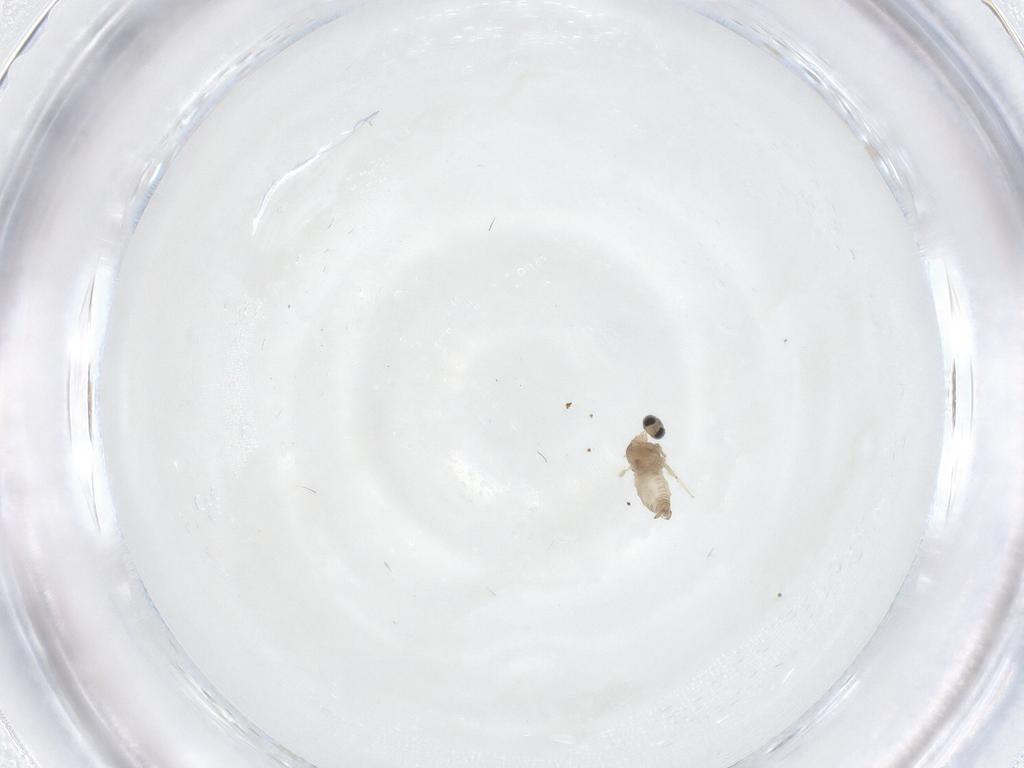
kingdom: Animalia
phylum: Arthropoda
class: Insecta
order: Diptera
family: Cecidomyiidae
